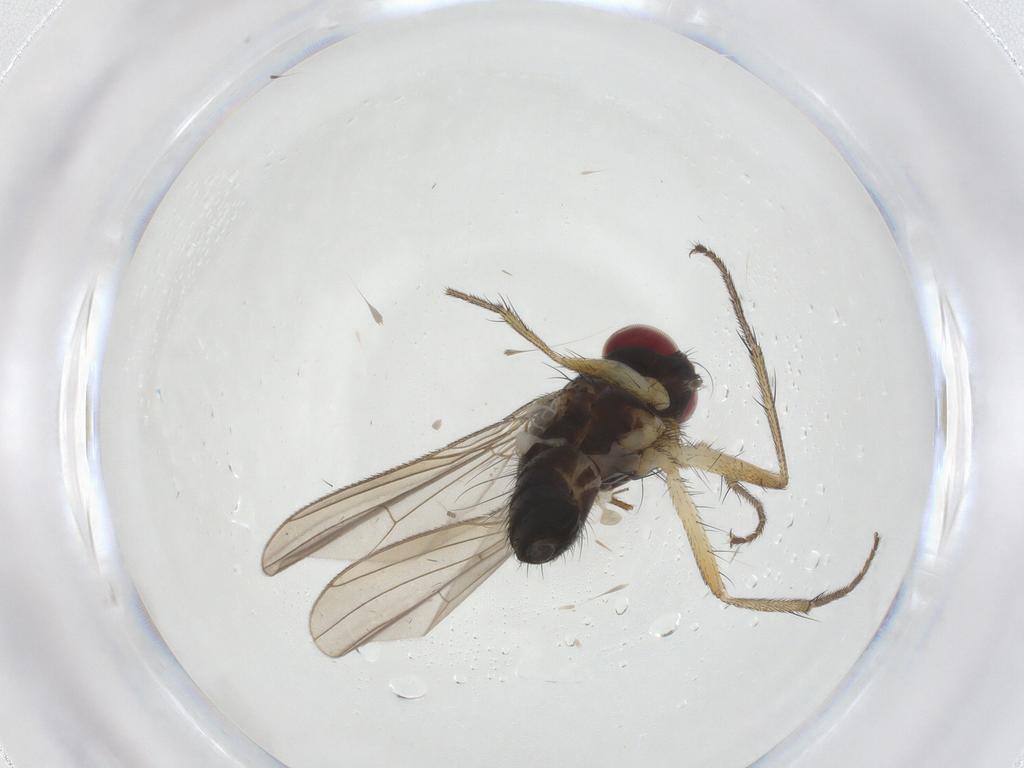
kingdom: Animalia
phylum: Arthropoda
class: Insecta
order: Diptera
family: Muscidae
